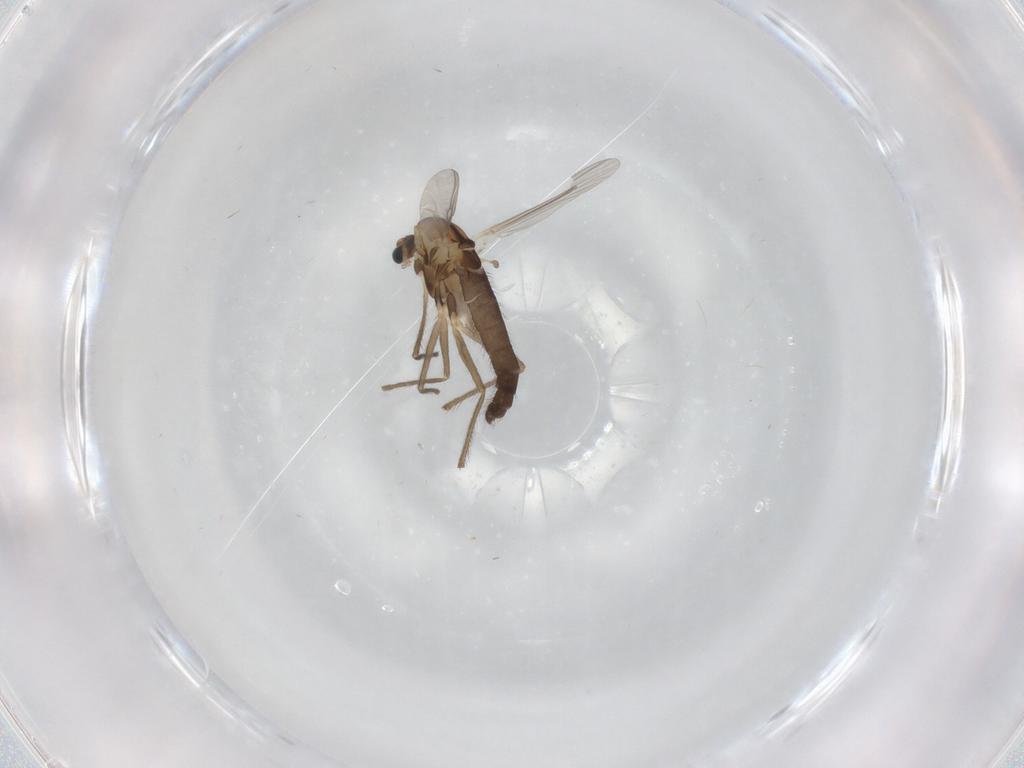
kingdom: Animalia
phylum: Arthropoda
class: Insecta
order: Diptera
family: Chironomidae
